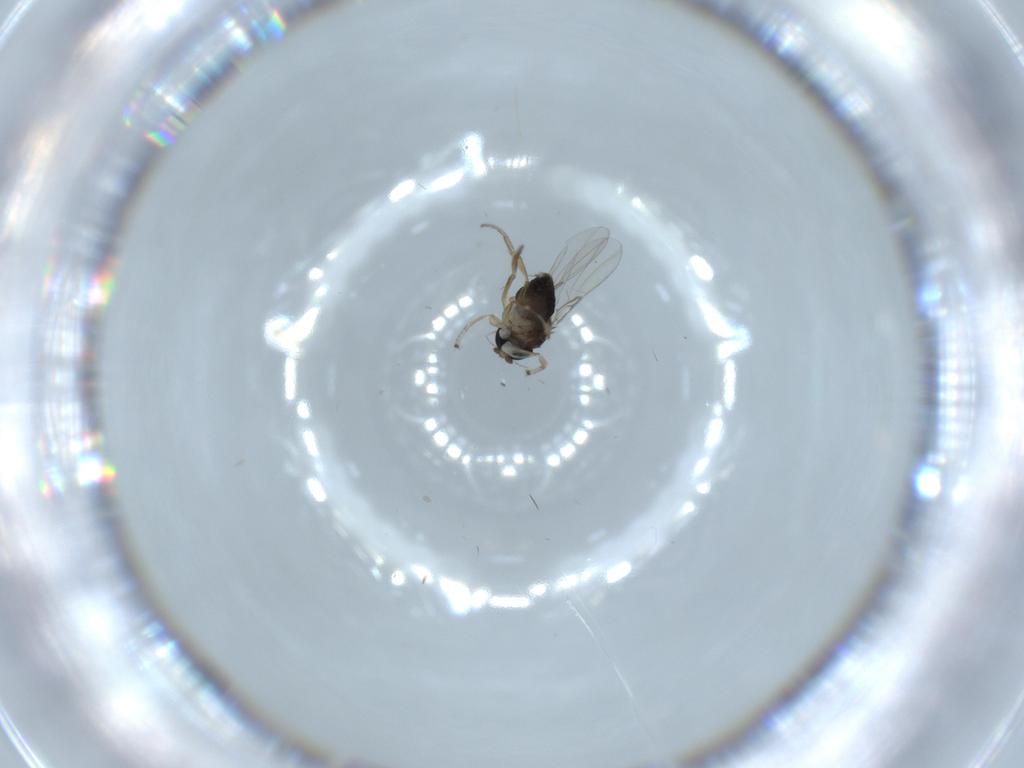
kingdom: Animalia
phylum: Arthropoda
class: Insecta
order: Diptera
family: Phoridae
